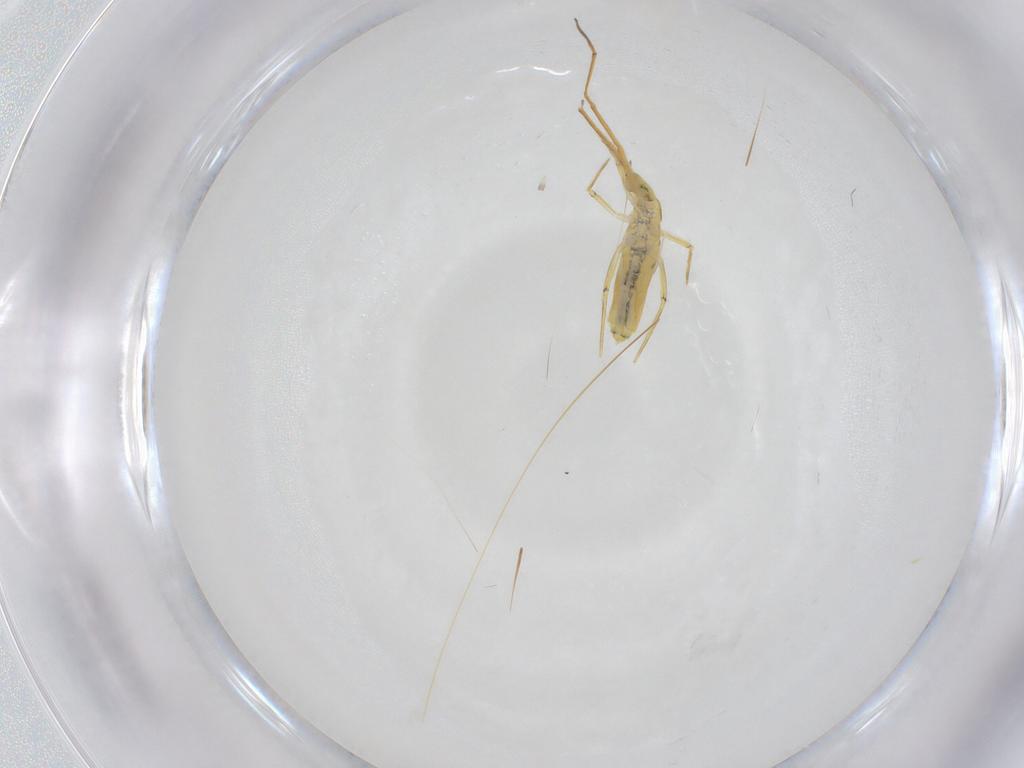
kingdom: Animalia
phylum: Arthropoda
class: Collembola
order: Entomobryomorpha
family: Entomobryidae
